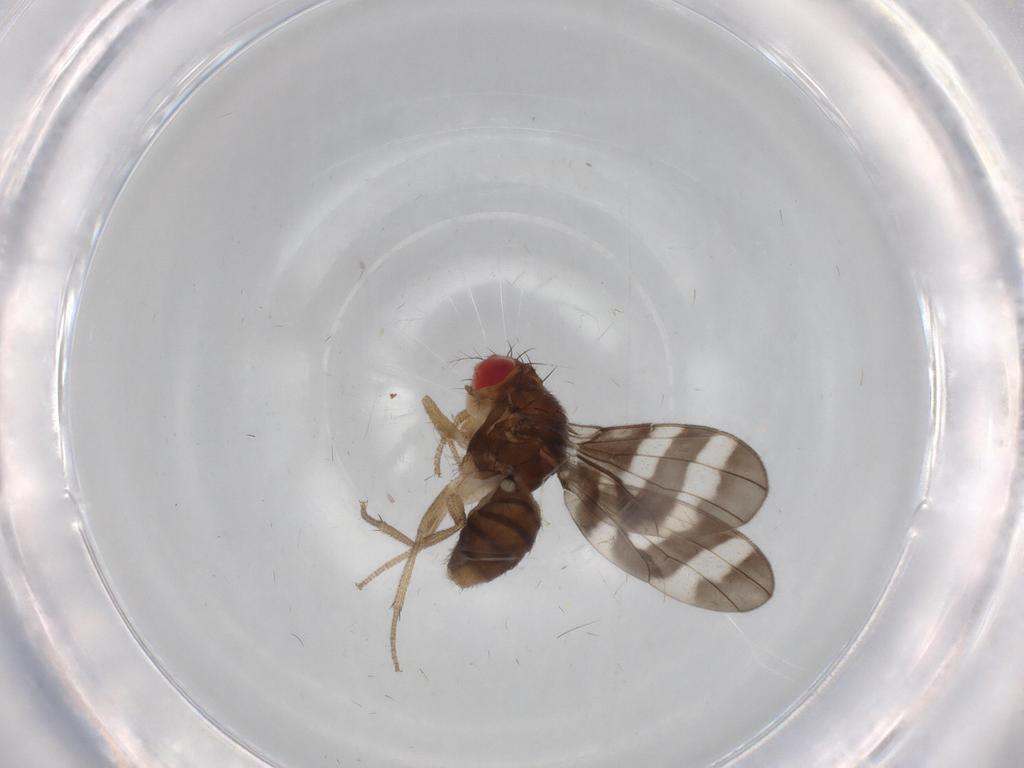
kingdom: Animalia
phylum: Arthropoda
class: Insecta
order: Diptera
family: Drosophilidae
